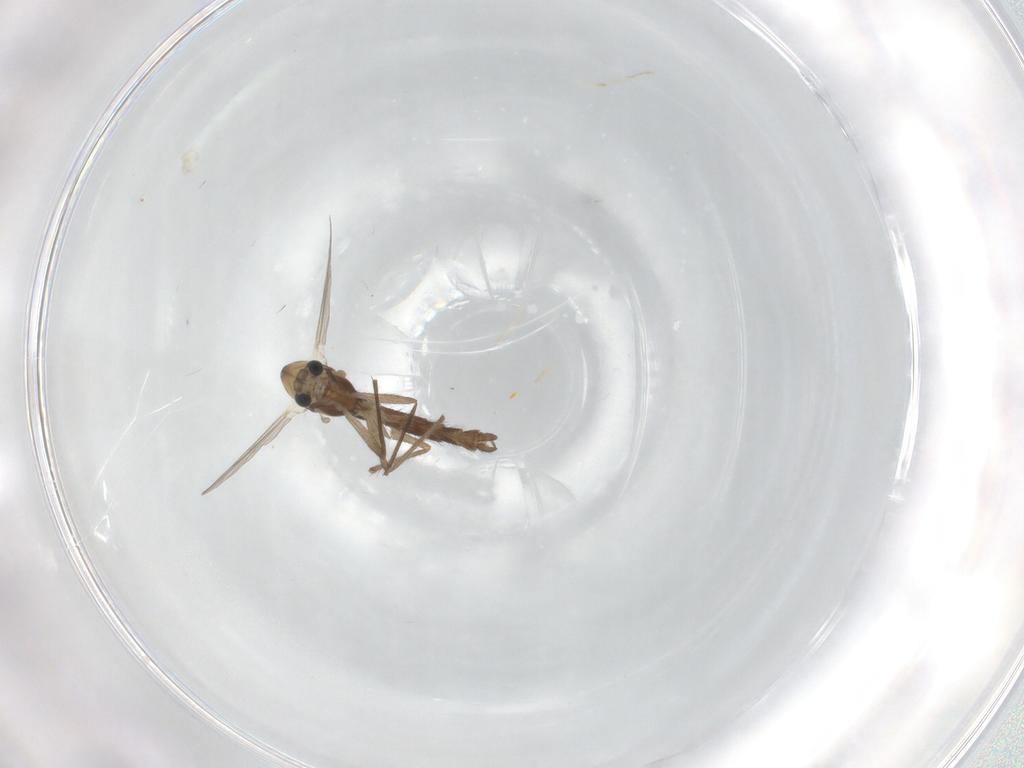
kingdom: Animalia
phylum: Arthropoda
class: Insecta
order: Diptera
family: Chironomidae
